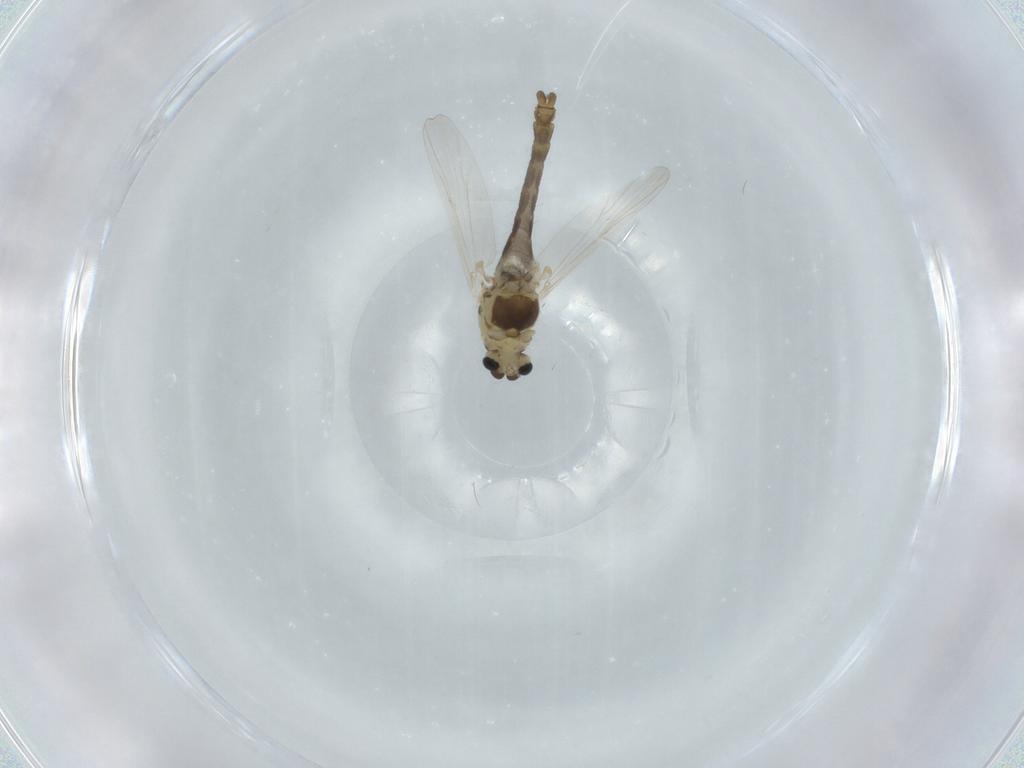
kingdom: Animalia
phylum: Arthropoda
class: Insecta
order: Diptera
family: Chironomidae
